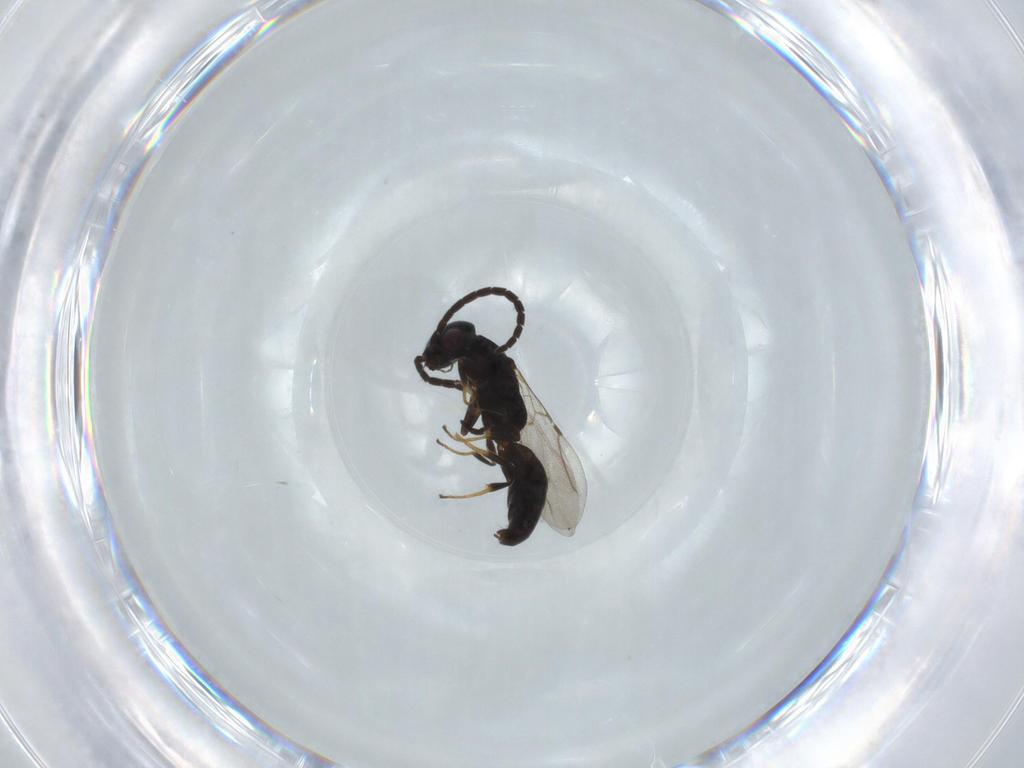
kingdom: Animalia
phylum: Arthropoda
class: Insecta
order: Hymenoptera
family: Bethylidae
